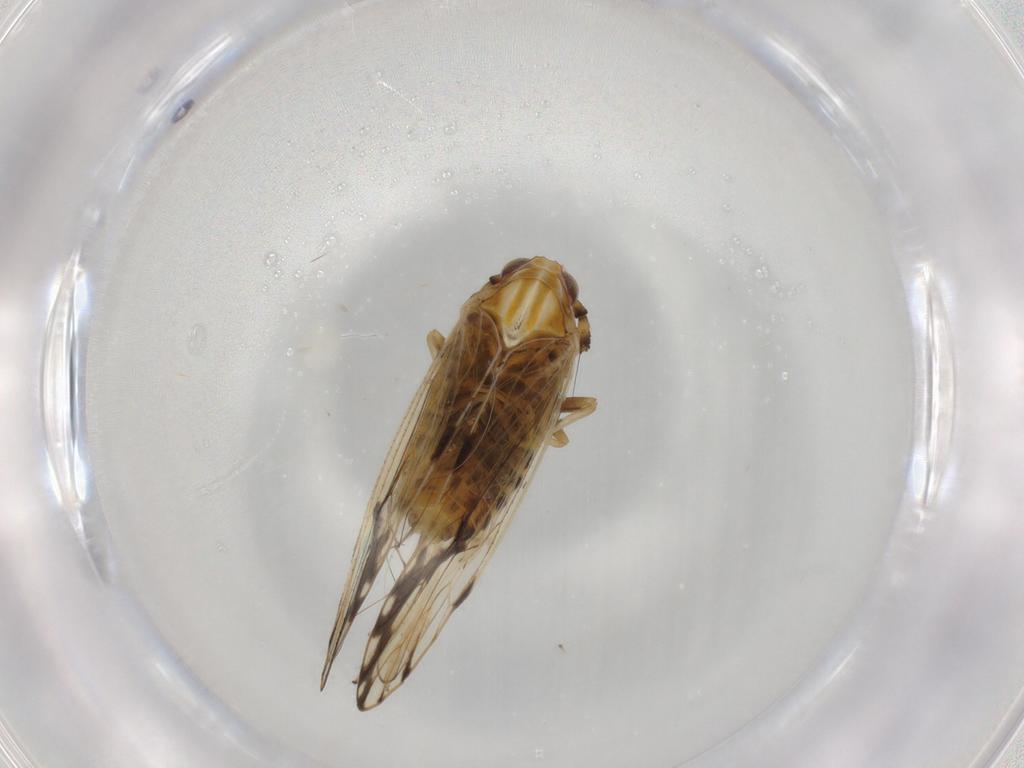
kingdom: Animalia
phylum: Arthropoda
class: Insecta
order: Hemiptera
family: Delphacidae
